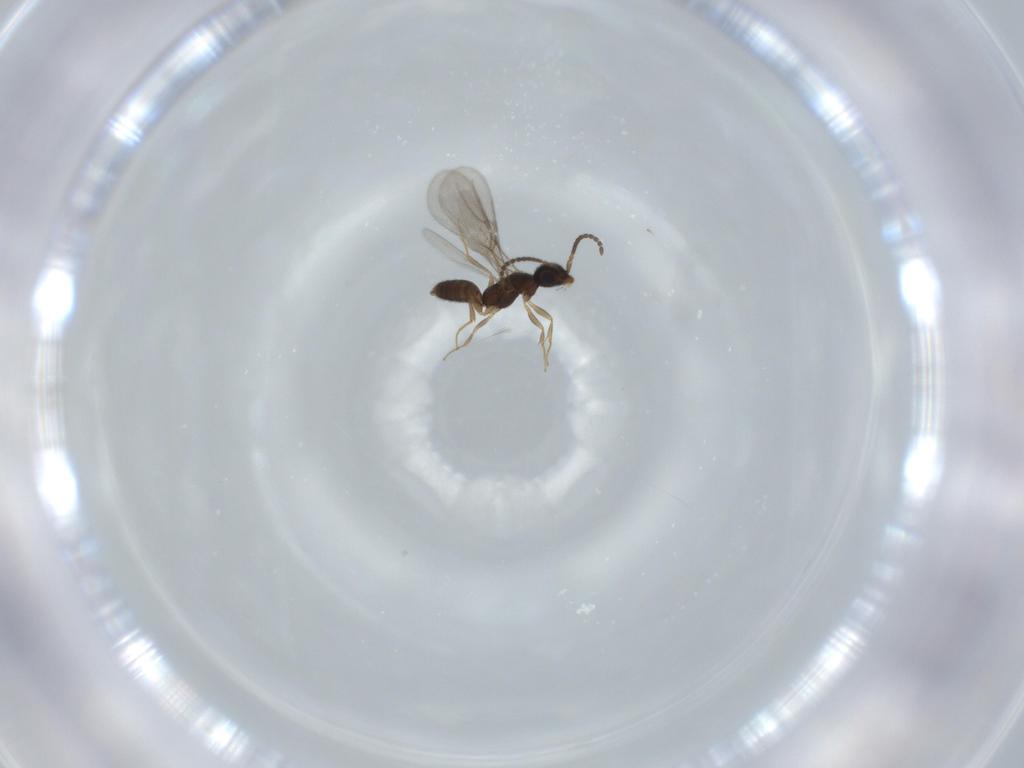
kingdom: Animalia
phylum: Arthropoda
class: Insecta
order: Hymenoptera
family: Bethylidae
